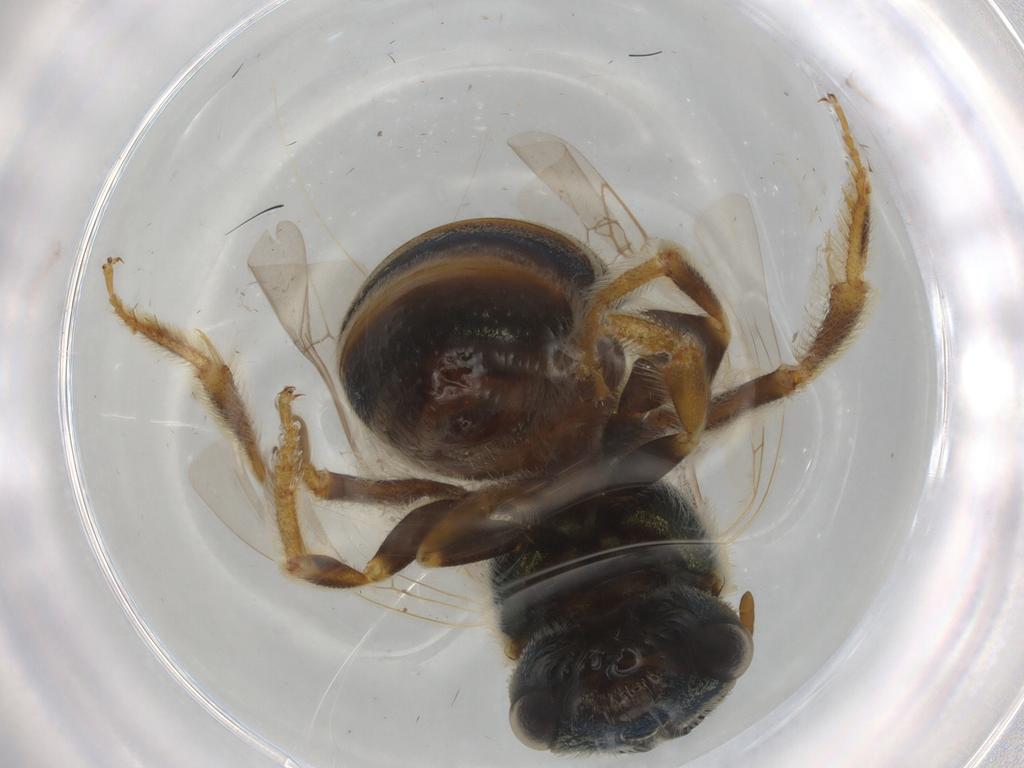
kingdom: Animalia
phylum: Arthropoda
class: Insecta
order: Hymenoptera
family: Halictidae
